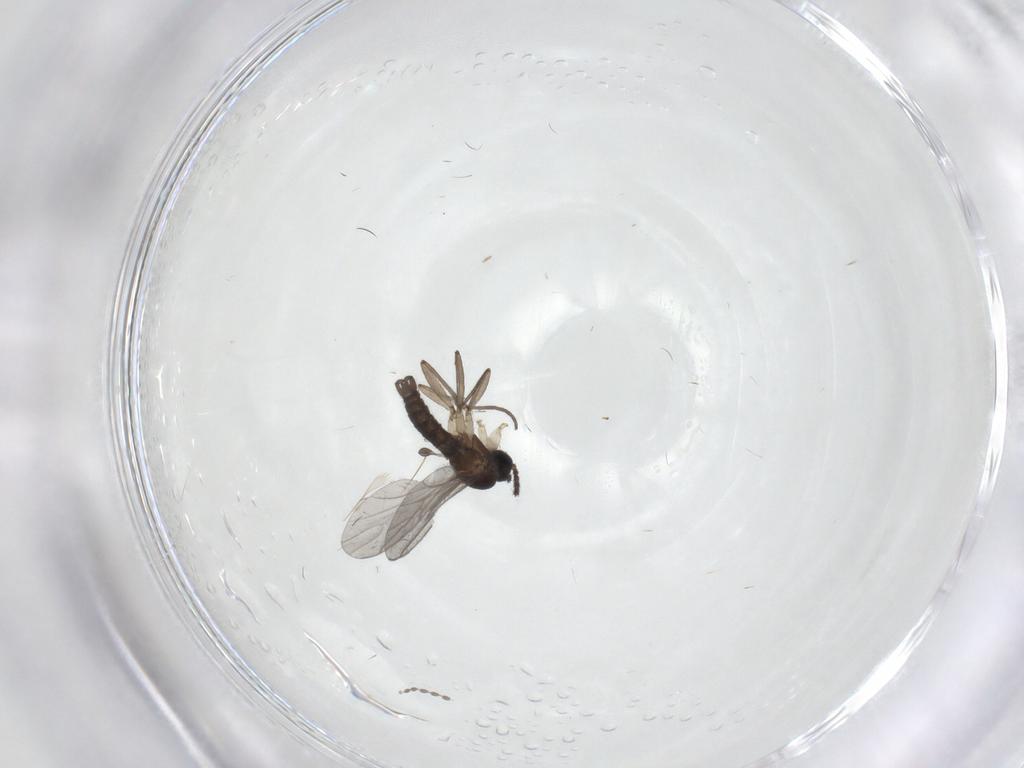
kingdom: Animalia
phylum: Arthropoda
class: Insecta
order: Diptera
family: Sciaridae
